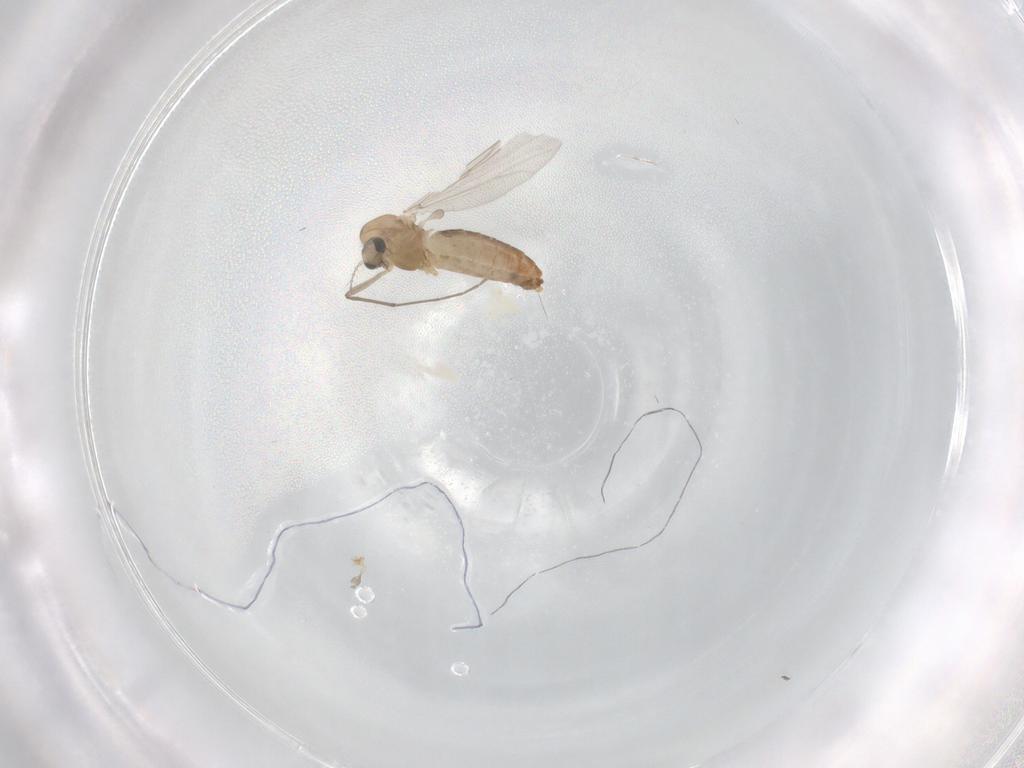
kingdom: Animalia
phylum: Arthropoda
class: Insecta
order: Diptera
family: Chironomidae
